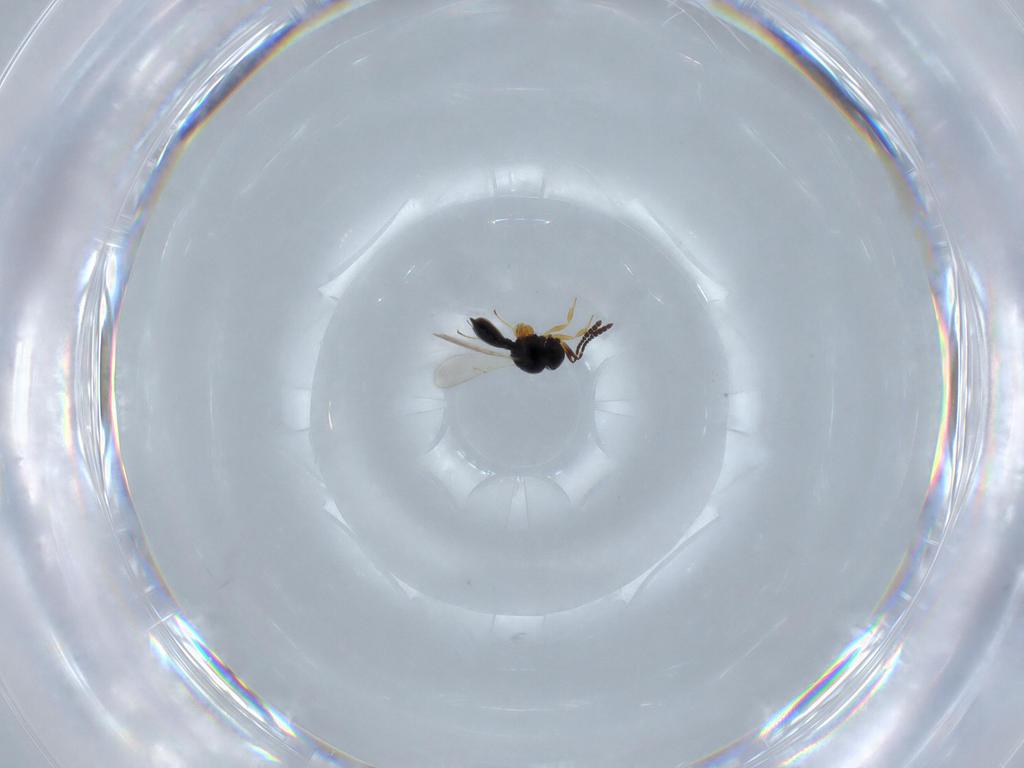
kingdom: Animalia
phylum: Arthropoda
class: Insecta
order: Hymenoptera
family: Scelionidae
